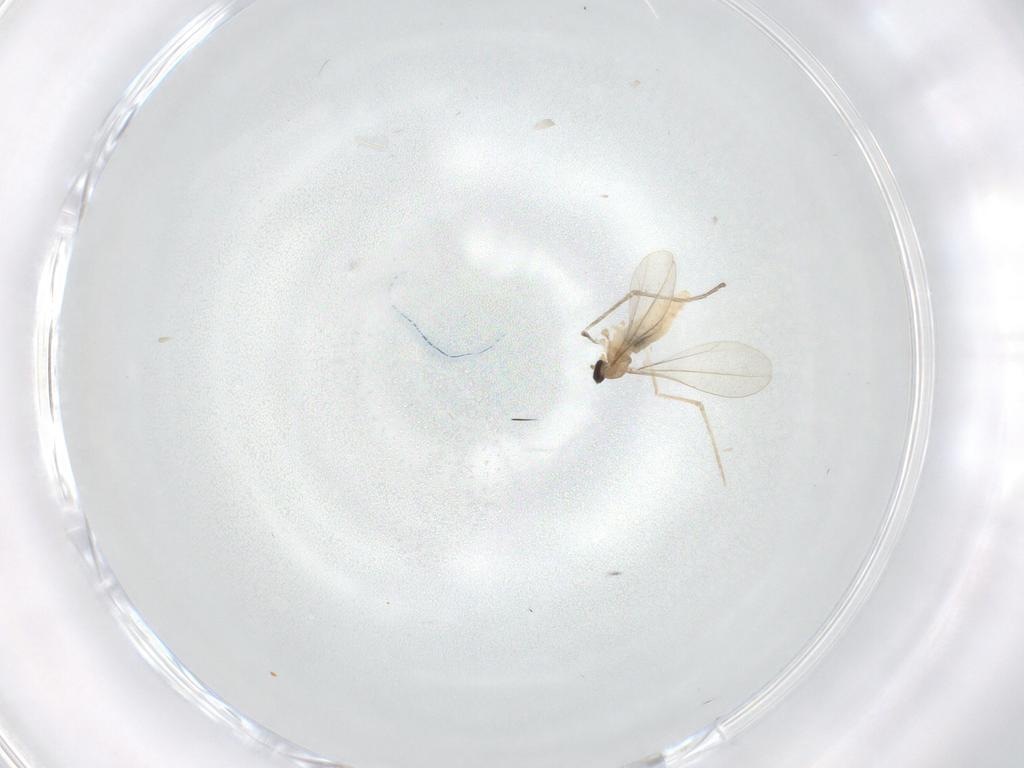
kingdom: Animalia
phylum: Arthropoda
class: Insecta
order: Diptera
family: Cecidomyiidae
